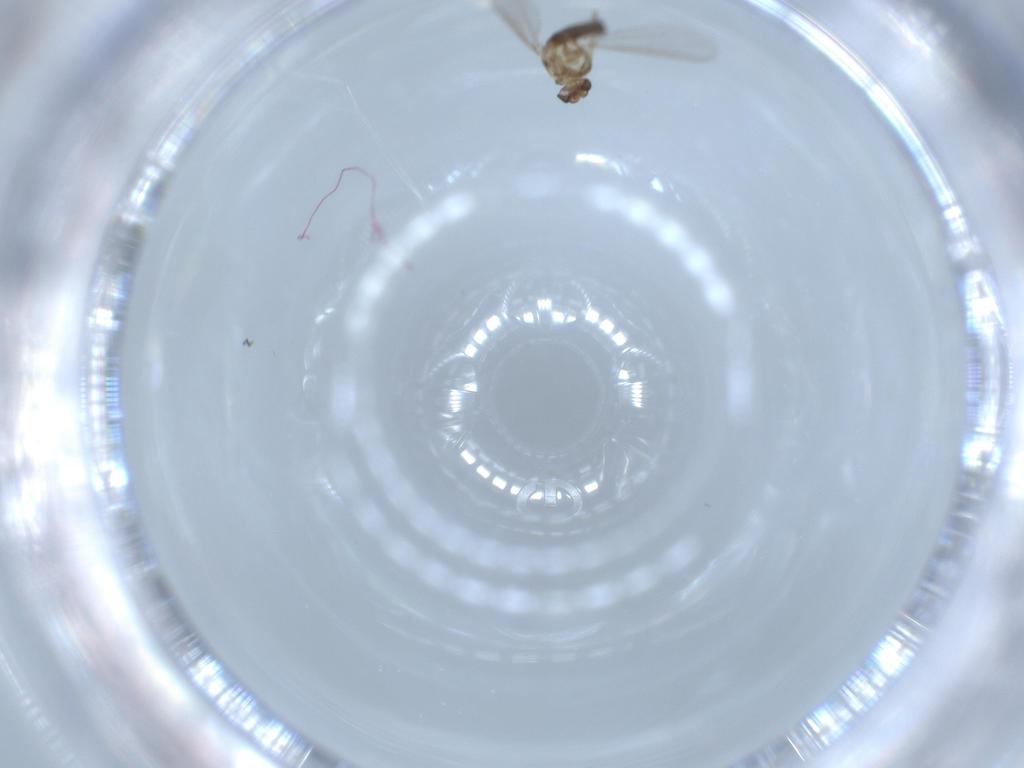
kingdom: Animalia
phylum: Arthropoda
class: Insecta
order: Diptera
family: Chironomidae
